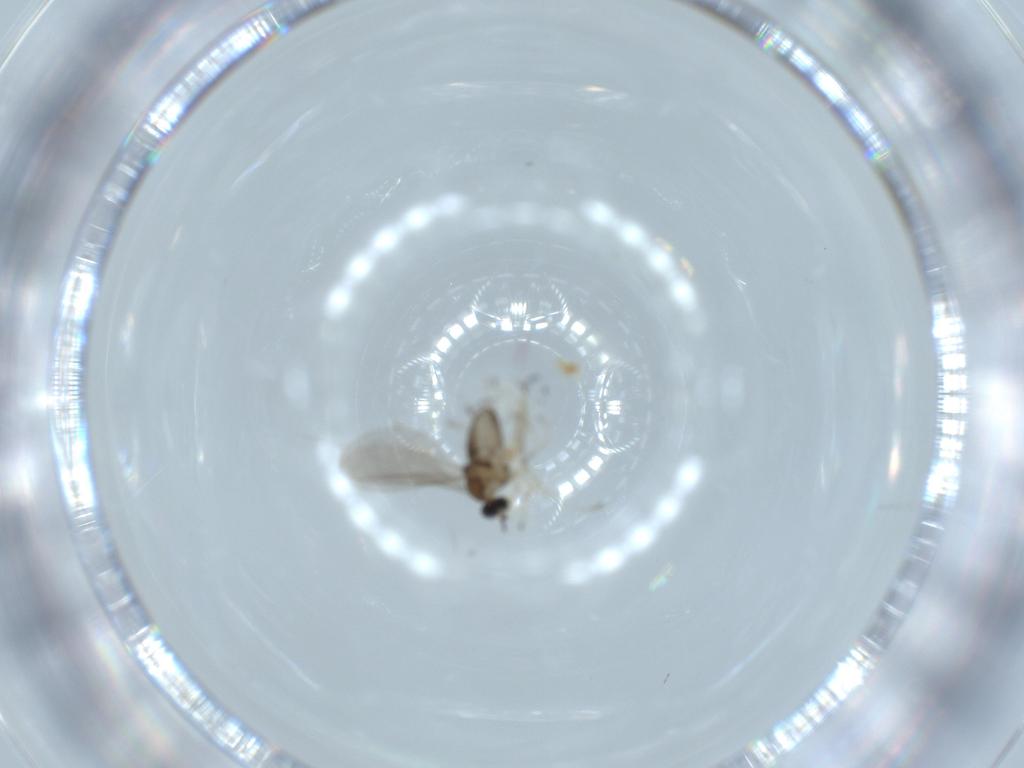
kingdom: Animalia
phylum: Arthropoda
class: Insecta
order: Diptera
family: Cecidomyiidae
